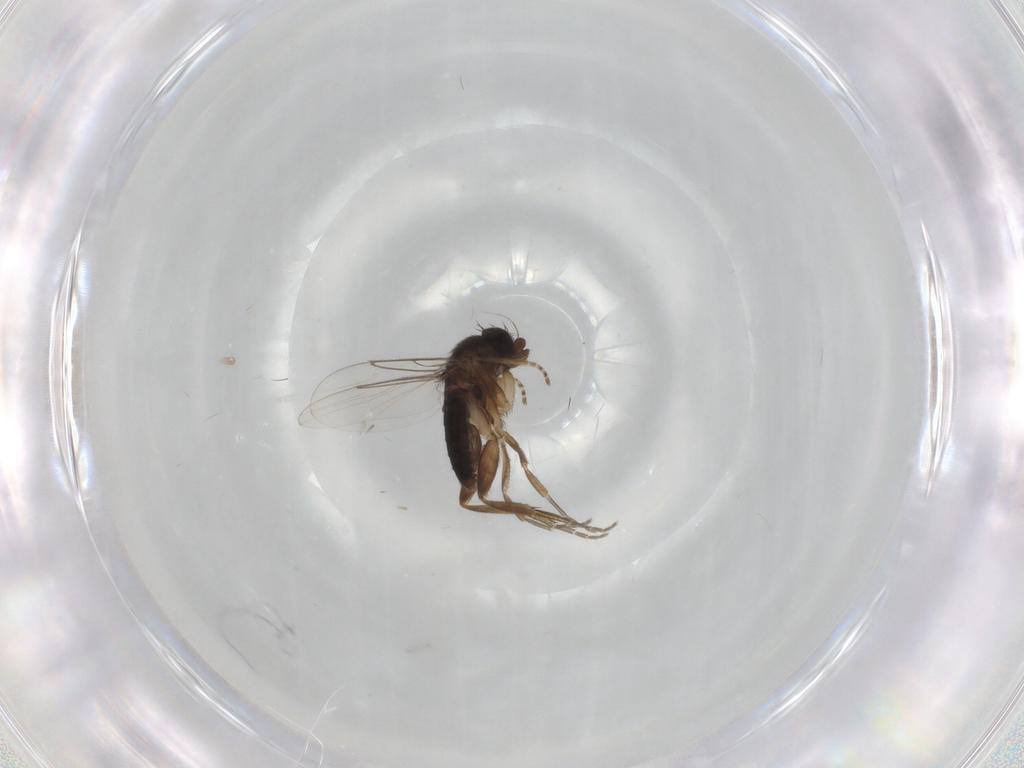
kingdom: Animalia
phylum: Arthropoda
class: Insecta
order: Diptera
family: Phoridae
